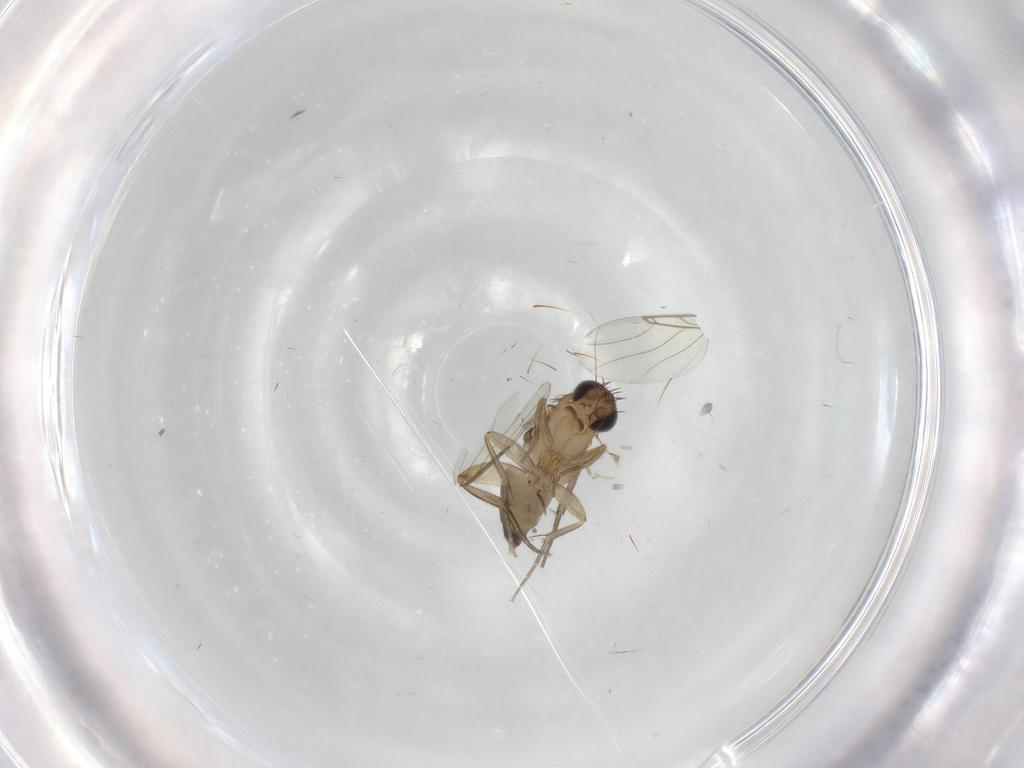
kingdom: Animalia
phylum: Arthropoda
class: Insecta
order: Diptera
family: Phoridae
